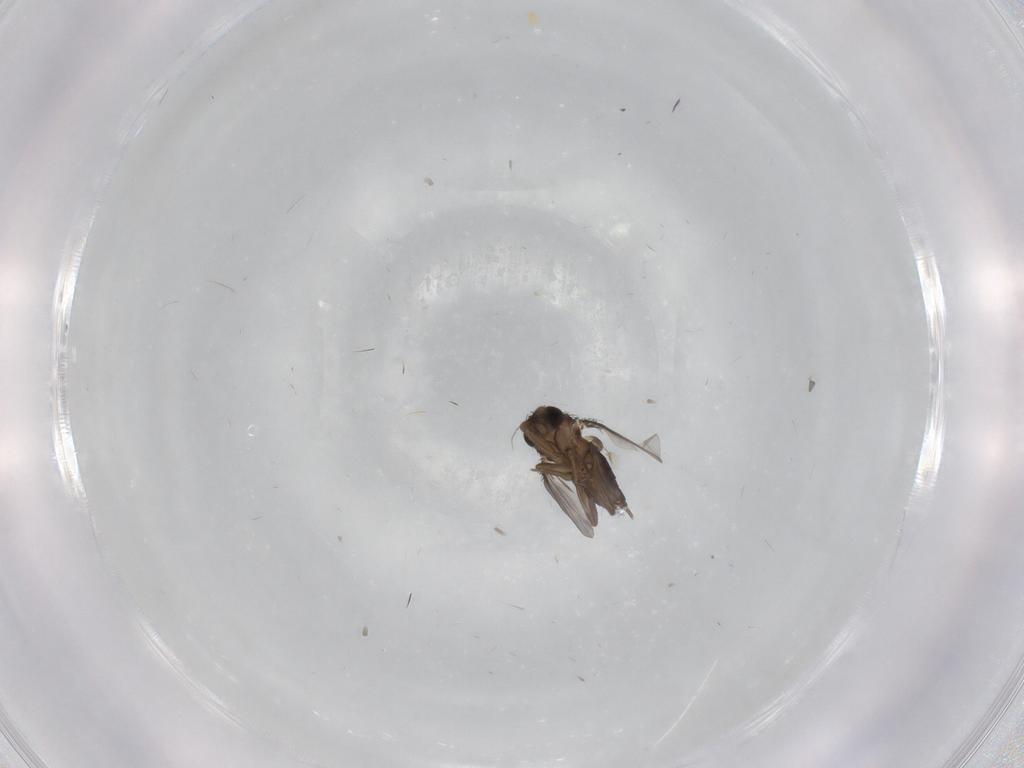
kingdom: Animalia
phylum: Arthropoda
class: Insecta
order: Diptera
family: Phoridae
